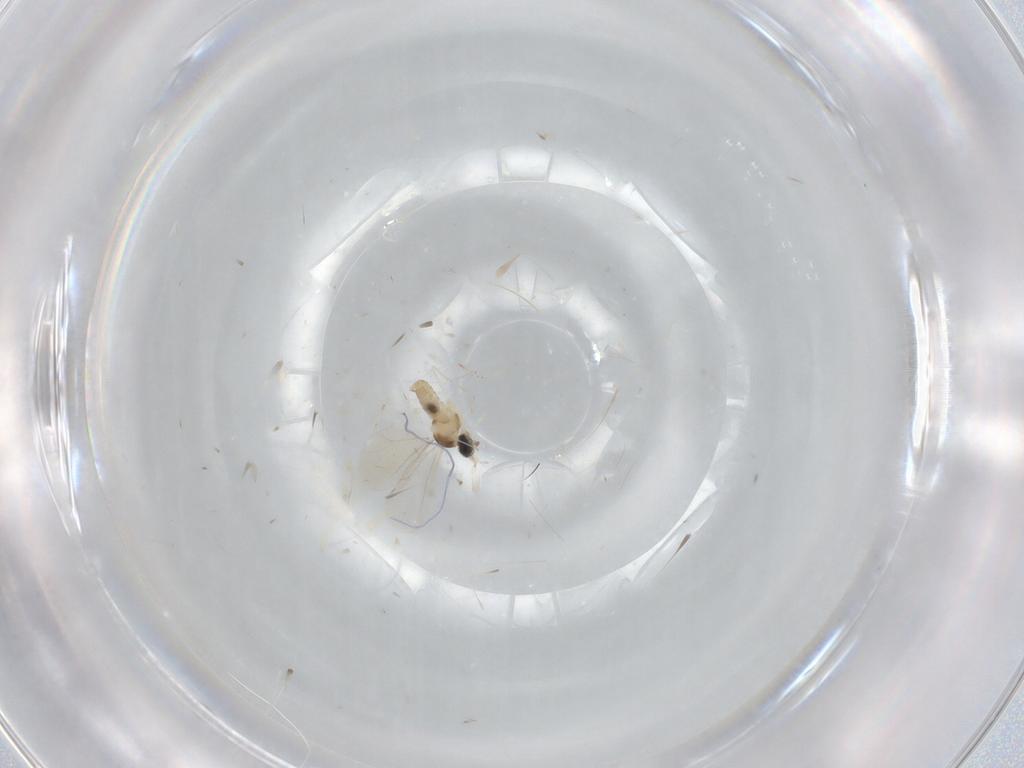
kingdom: Animalia
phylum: Arthropoda
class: Insecta
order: Diptera
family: Cecidomyiidae
